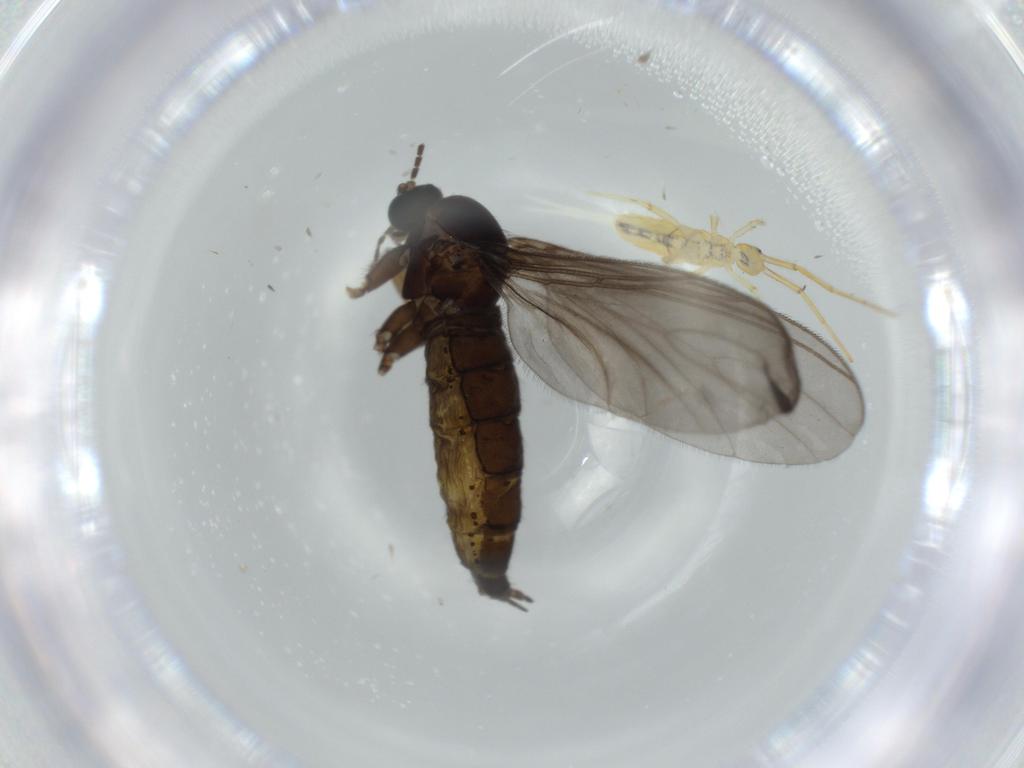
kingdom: Animalia
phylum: Arthropoda
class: Insecta
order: Diptera
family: Sciaridae
